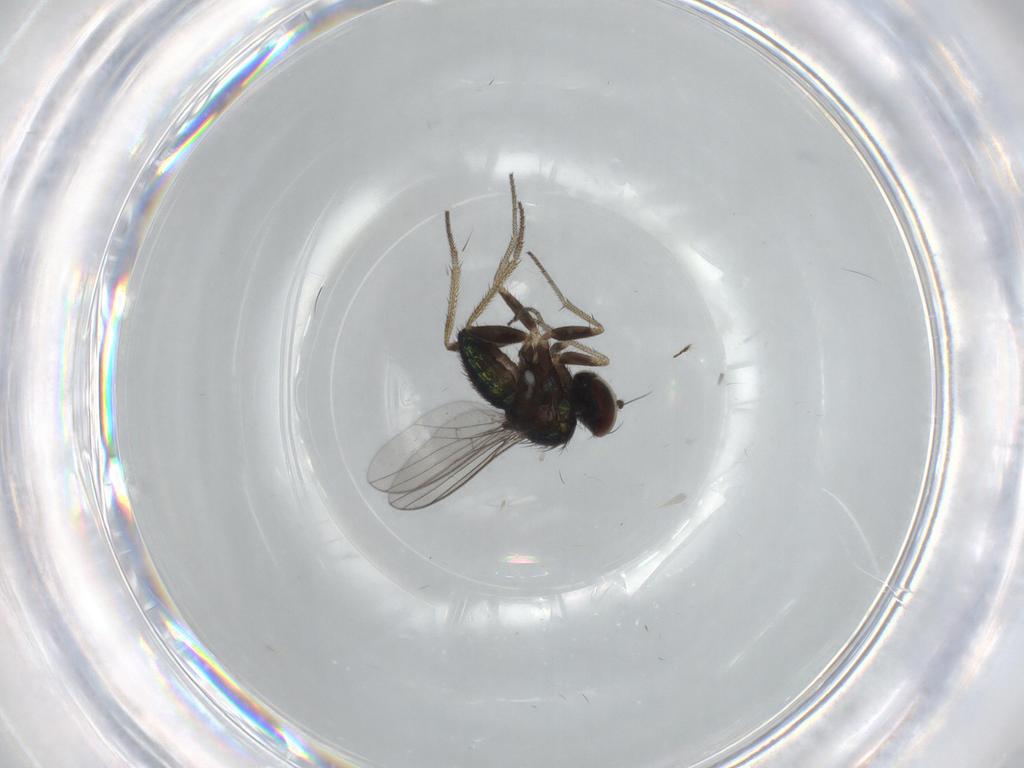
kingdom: Animalia
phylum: Arthropoda
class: Insecta
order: Diptera
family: Dolichopodidae
